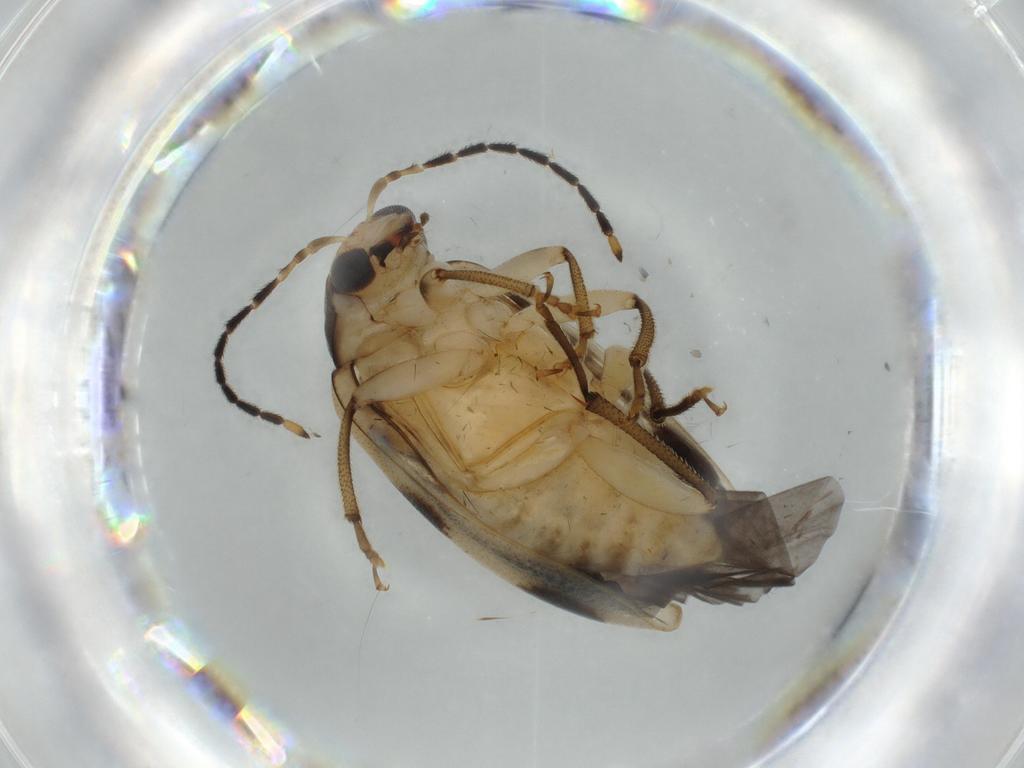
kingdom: Animalia
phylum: Arthropoda
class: Insecta
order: Coleoptera
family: Chrysomelidae
